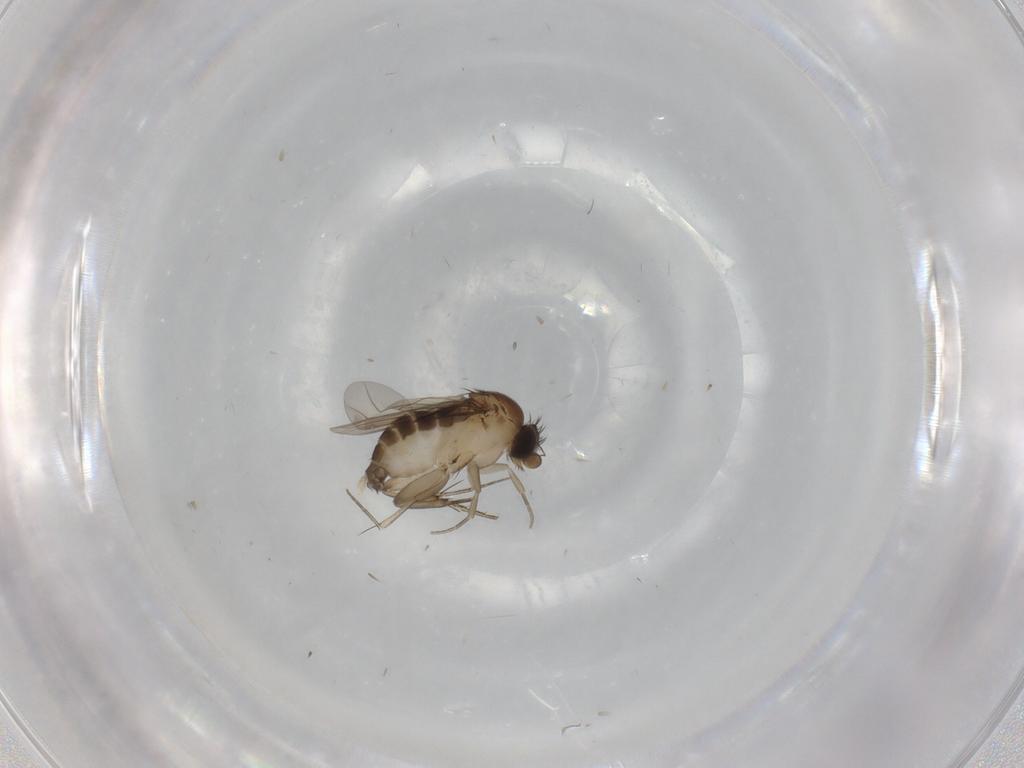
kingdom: Animalia
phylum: Arthropoda
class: Insecta
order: Diptera
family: Phoridae
